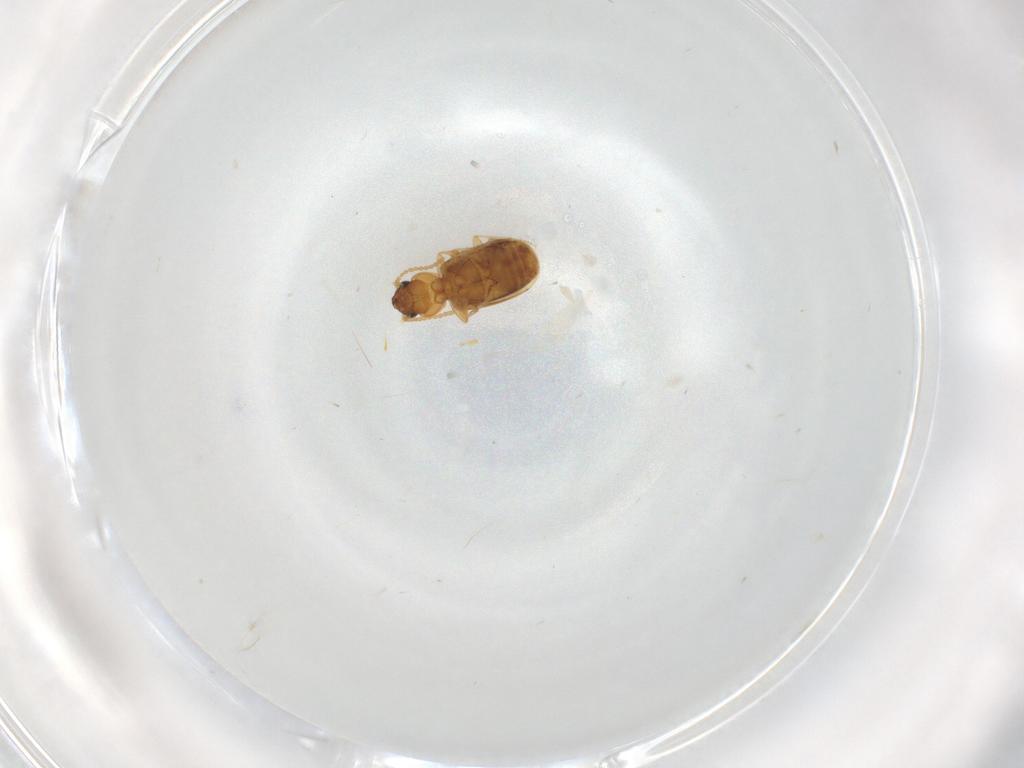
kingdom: Animalia
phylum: Arthropoda
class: Insecta
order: Coleoptera
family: Carabidae
